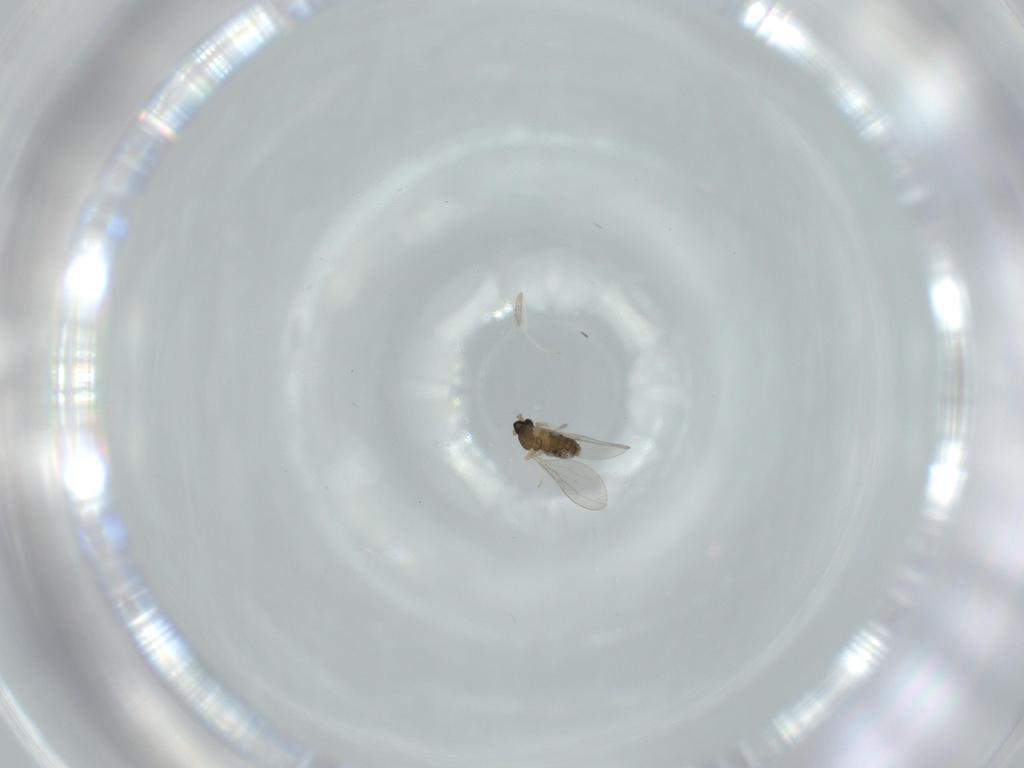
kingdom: Animalia
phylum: Arthropoda
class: Insecta
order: Diptera
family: Cecidomyiidae
